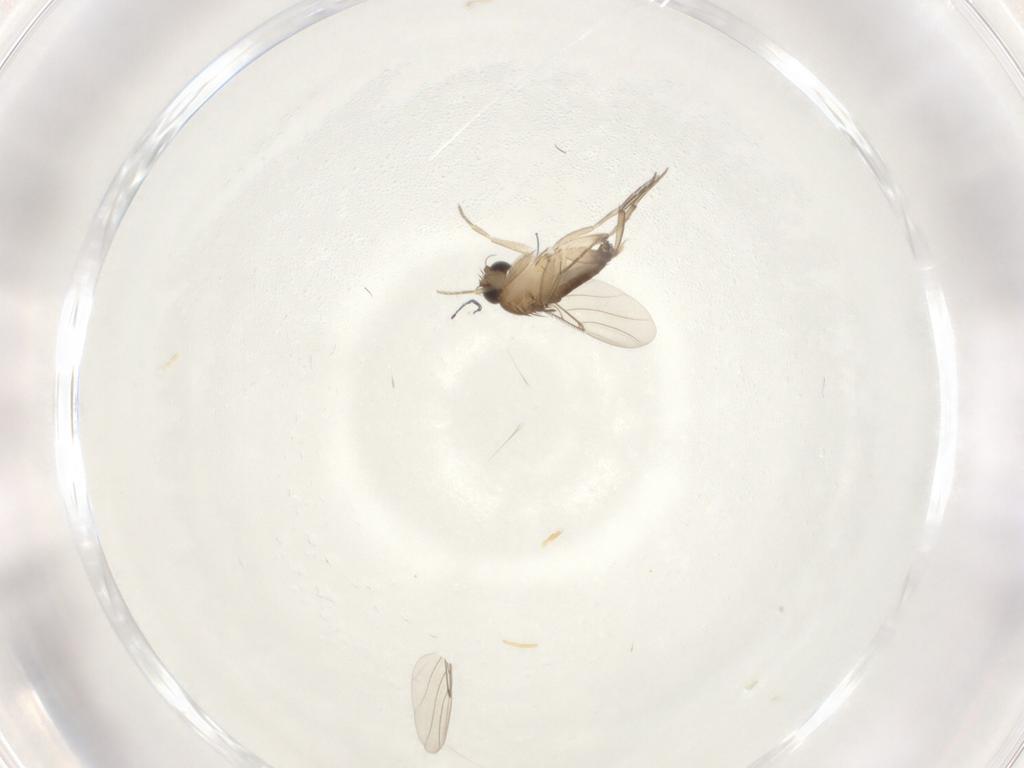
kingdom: Animalia
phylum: Arthropoda
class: Insecta
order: Diptera
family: Phoridae
